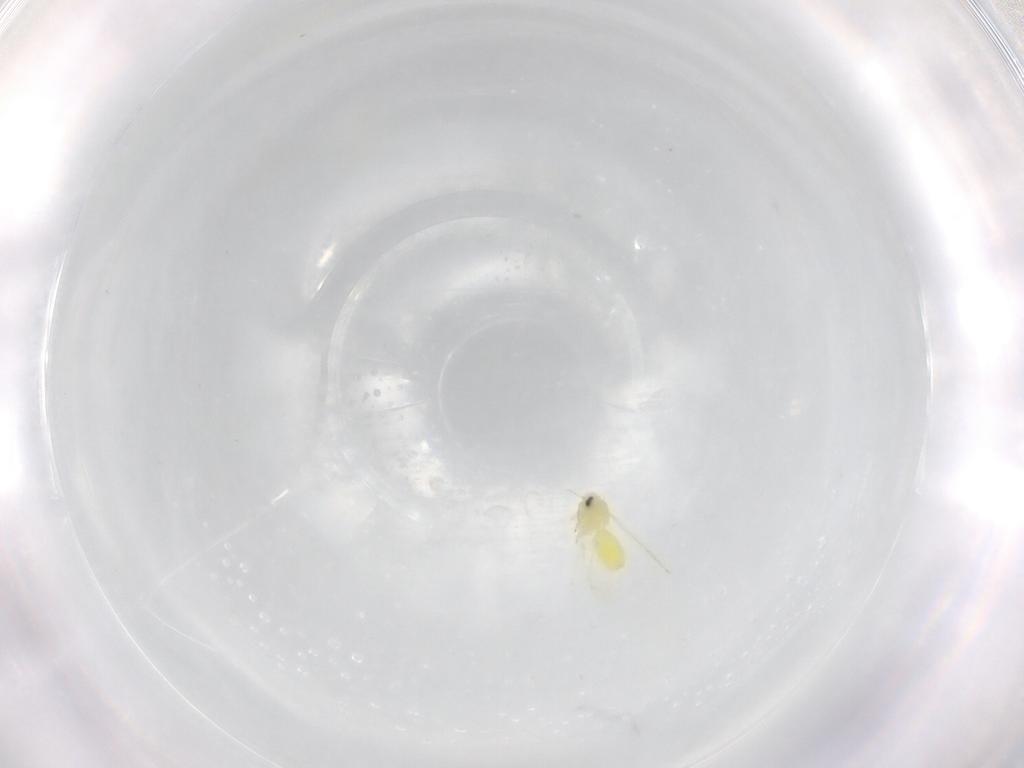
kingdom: Animalia
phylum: Arthropoda
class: Insecta
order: Hemiptera
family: Aleyrodidae
